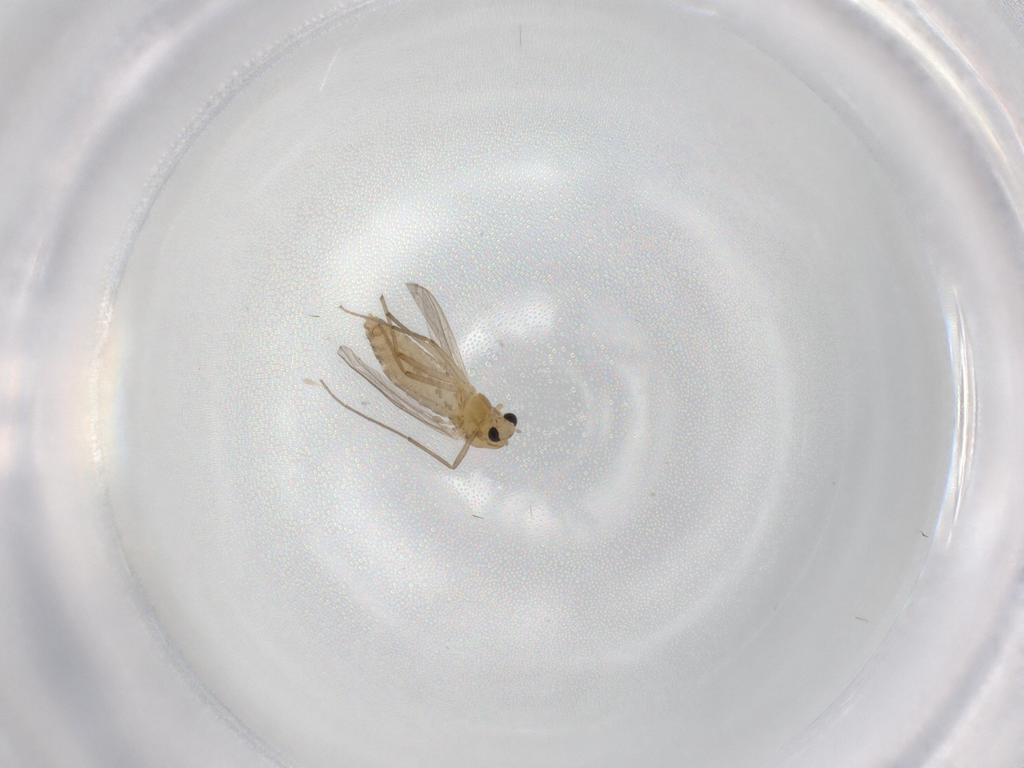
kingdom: Animalia
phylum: Arthropoda
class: Insecta
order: Diptera
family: Chironomidae
